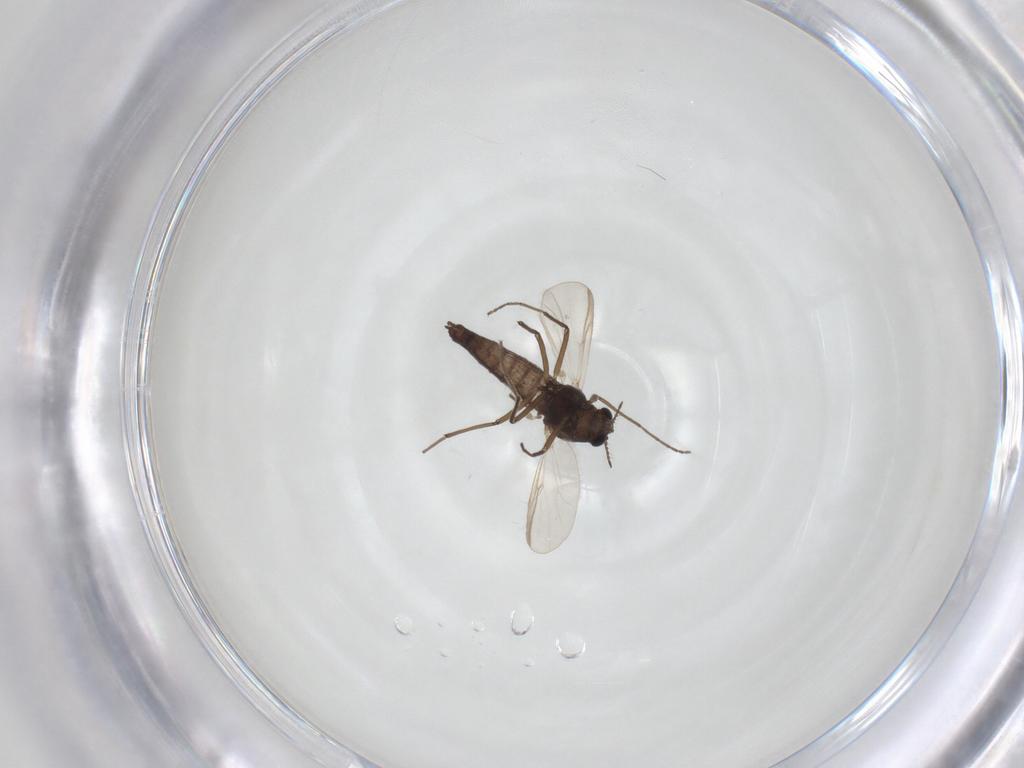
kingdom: Animalia
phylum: Arthropoda
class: Insecta
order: Diptera
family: Chironomidae
